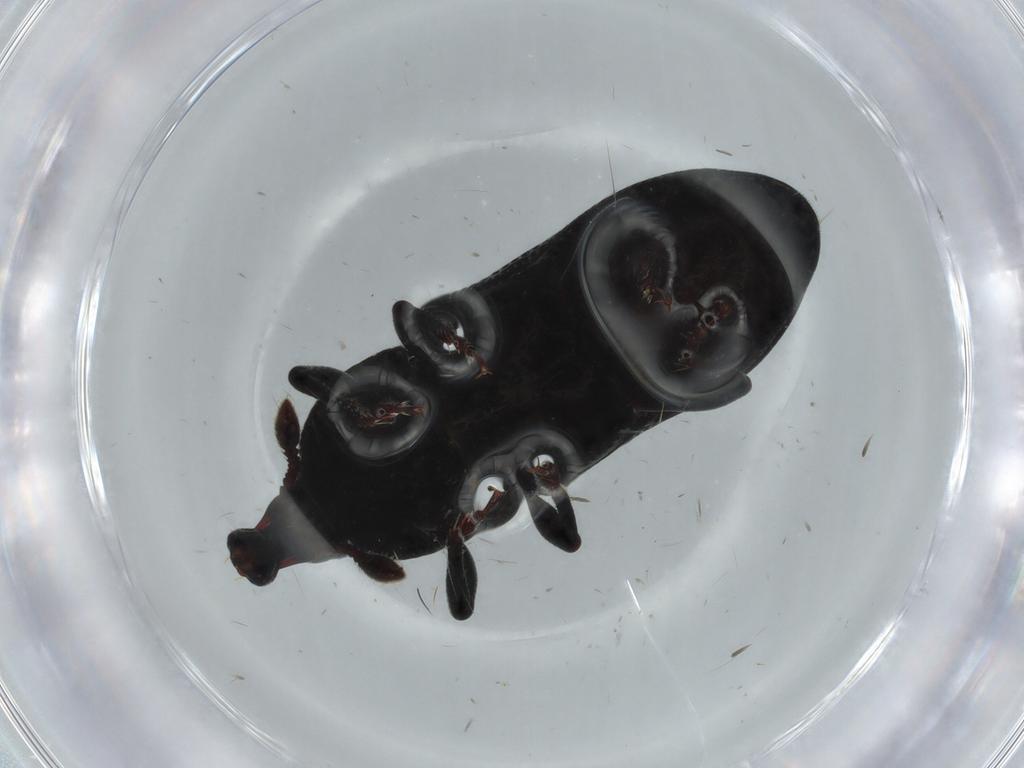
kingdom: Animalia
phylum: Arthropoda
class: Insecta
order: Coleoptera
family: Curculionidae
